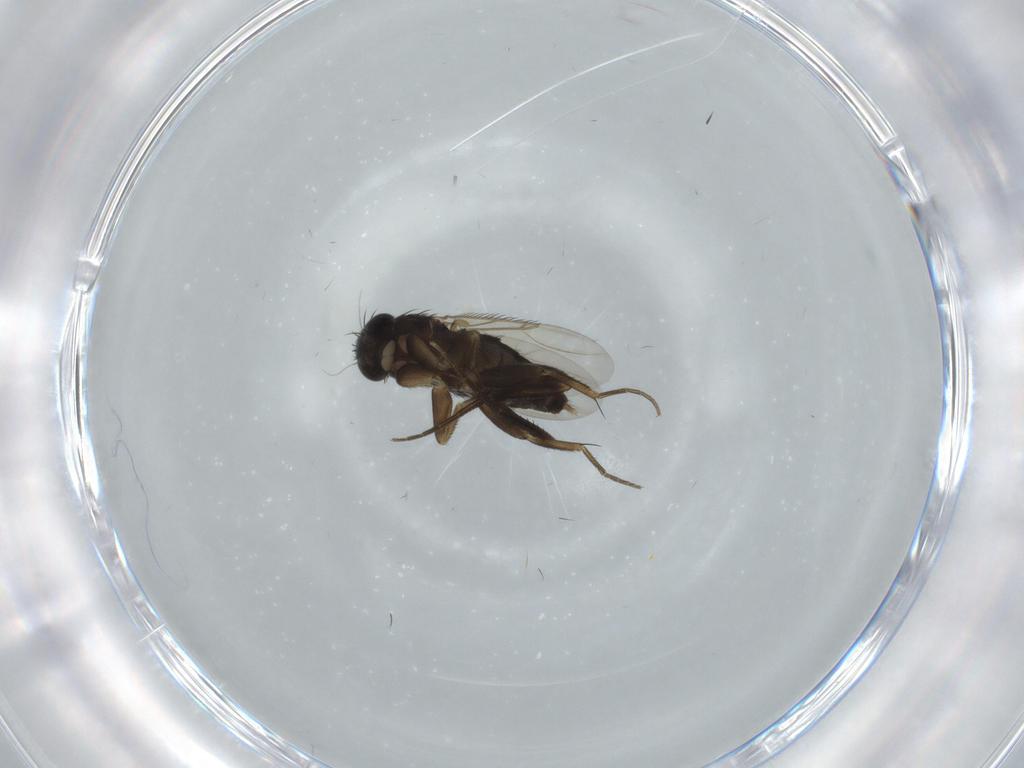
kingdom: Animalia
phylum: Arthropoda
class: Insecta
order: Diptera
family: Phoridae
